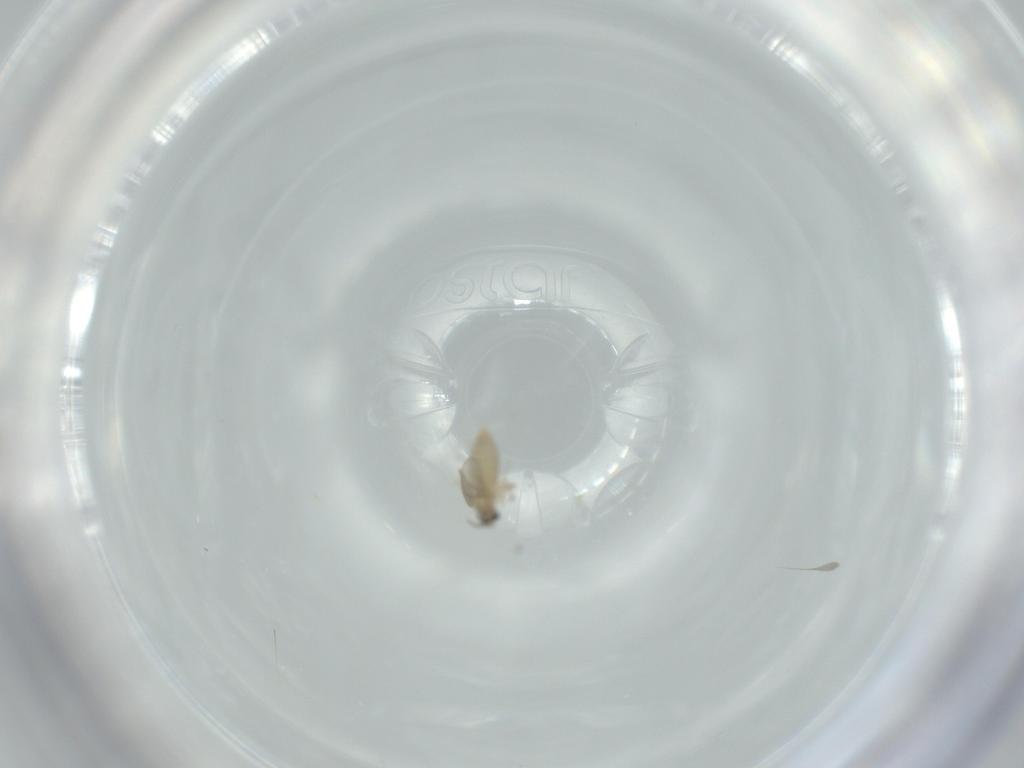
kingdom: Animalia
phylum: Arthropoda
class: Insecta
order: Diptera
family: Cecidomyiidae
